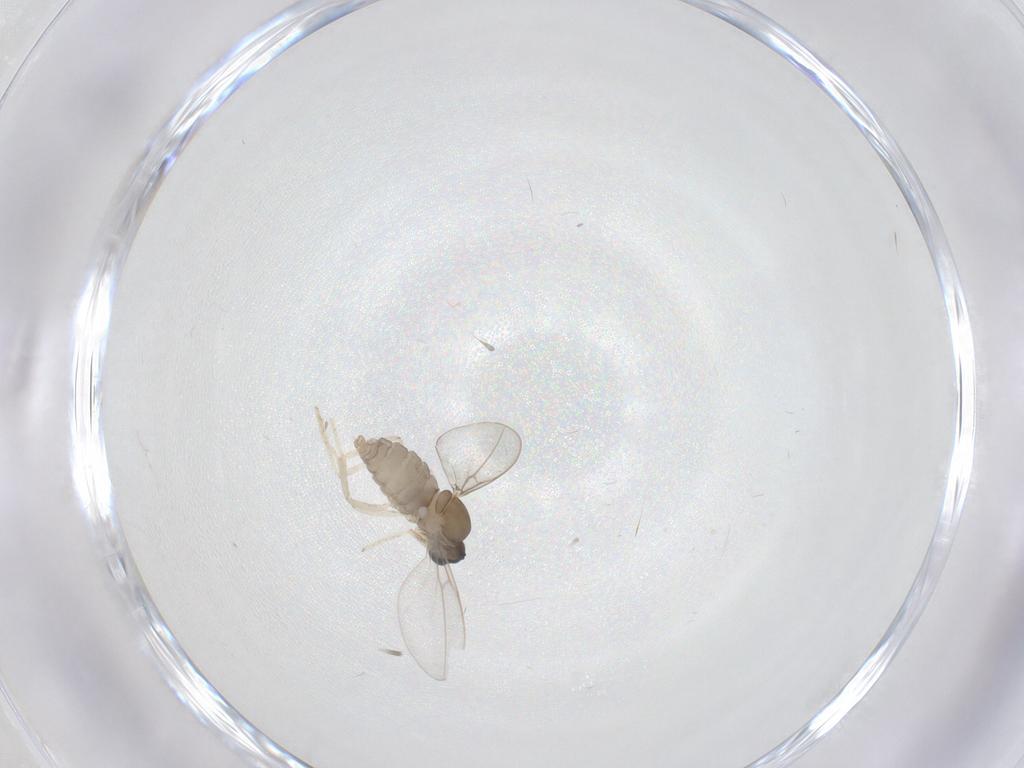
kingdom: Animalia
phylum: Arthropoda
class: Insecta
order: Diptera
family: Cecidomyiidae
